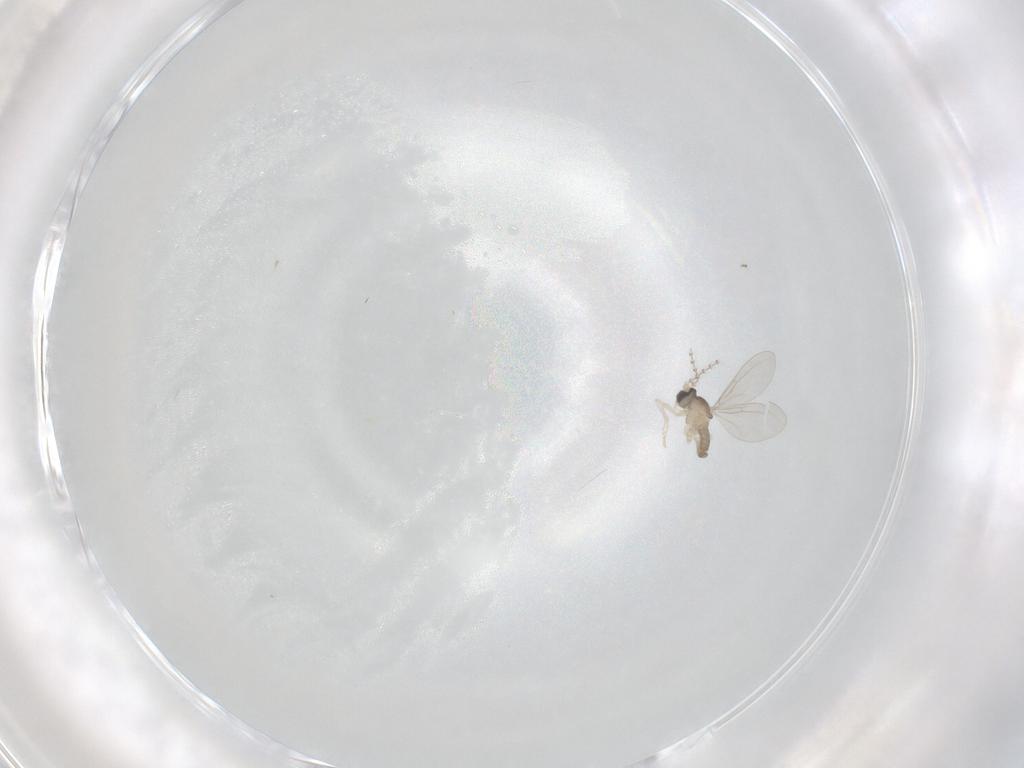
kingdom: Animalia
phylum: Arthropoda
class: Insecta
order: Diptera
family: Cecidomyiidae
